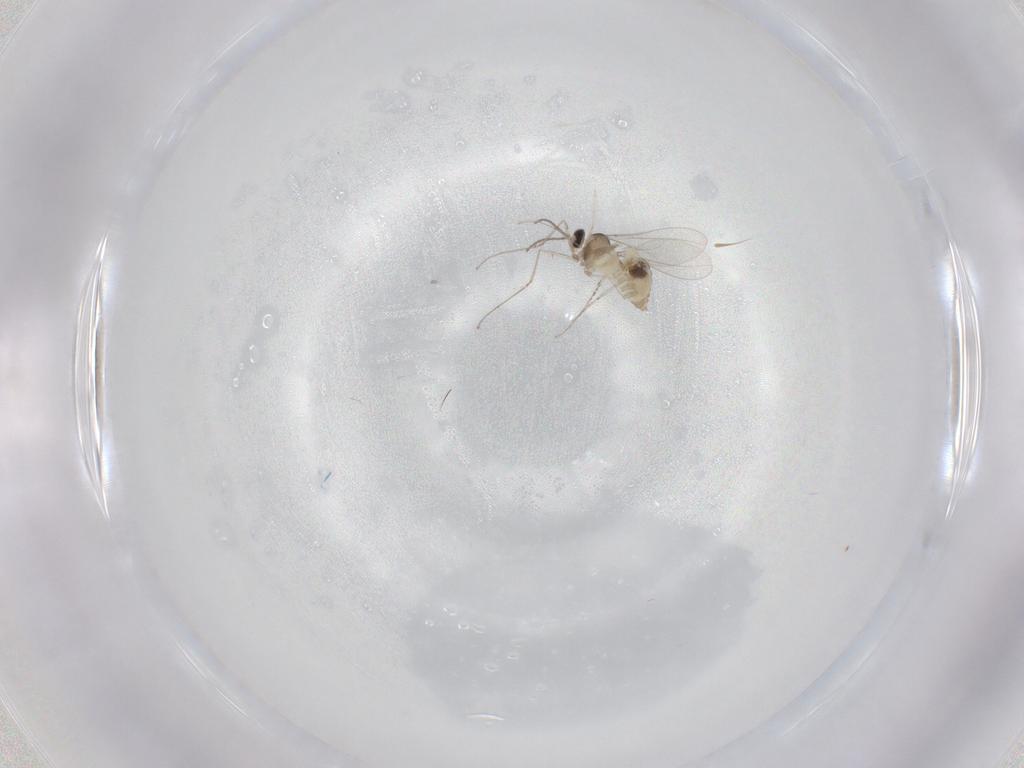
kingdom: Animalia
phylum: Arthropoda
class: Insecta
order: Diptera
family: Cecidomyiidae
